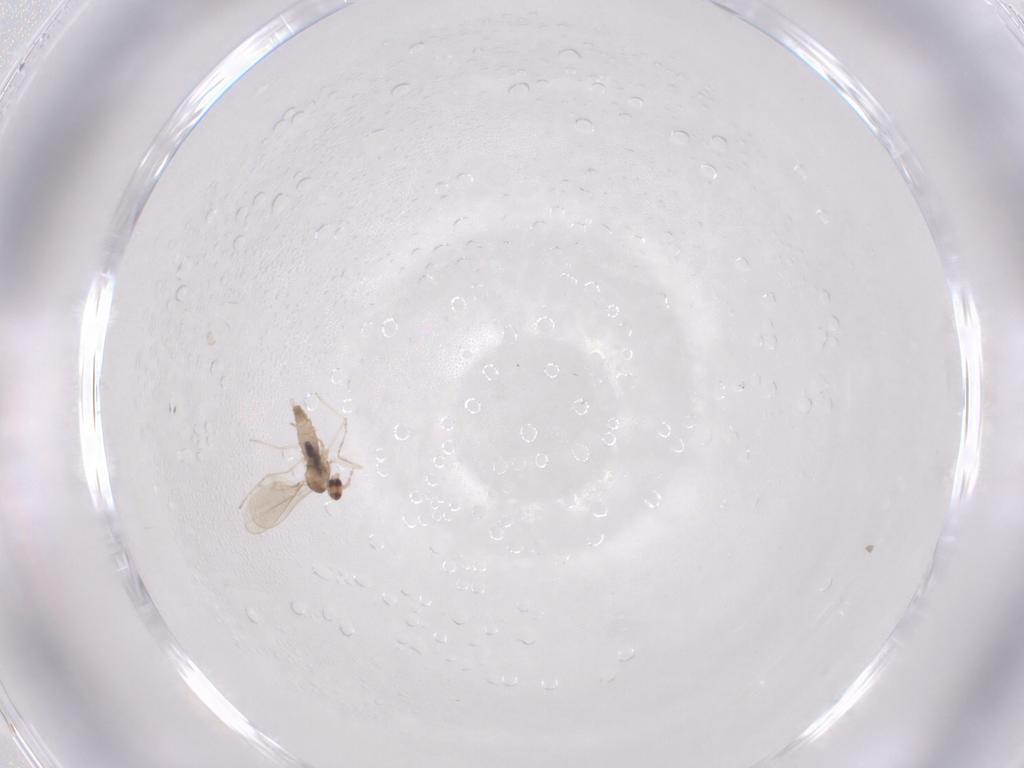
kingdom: Animalia
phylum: Arthropoda
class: Insecta
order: Diptera
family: Cecidomyiidae
